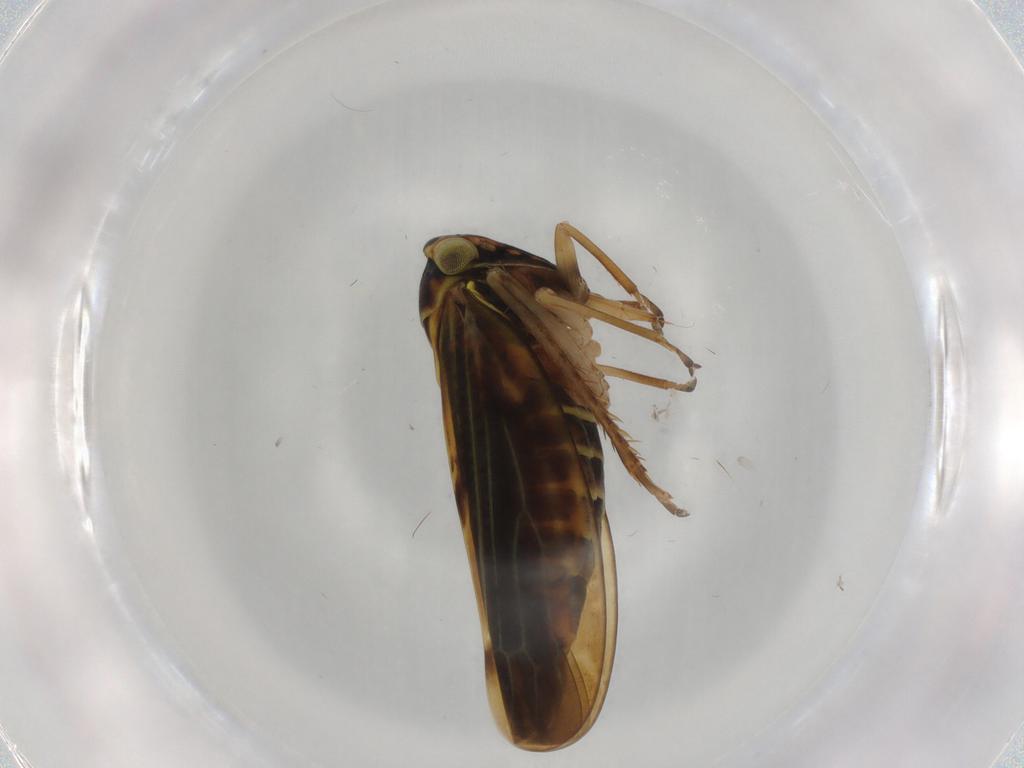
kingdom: Animalia
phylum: Arthropoda
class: Insecta
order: Hemiptera
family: Cicadellidae
